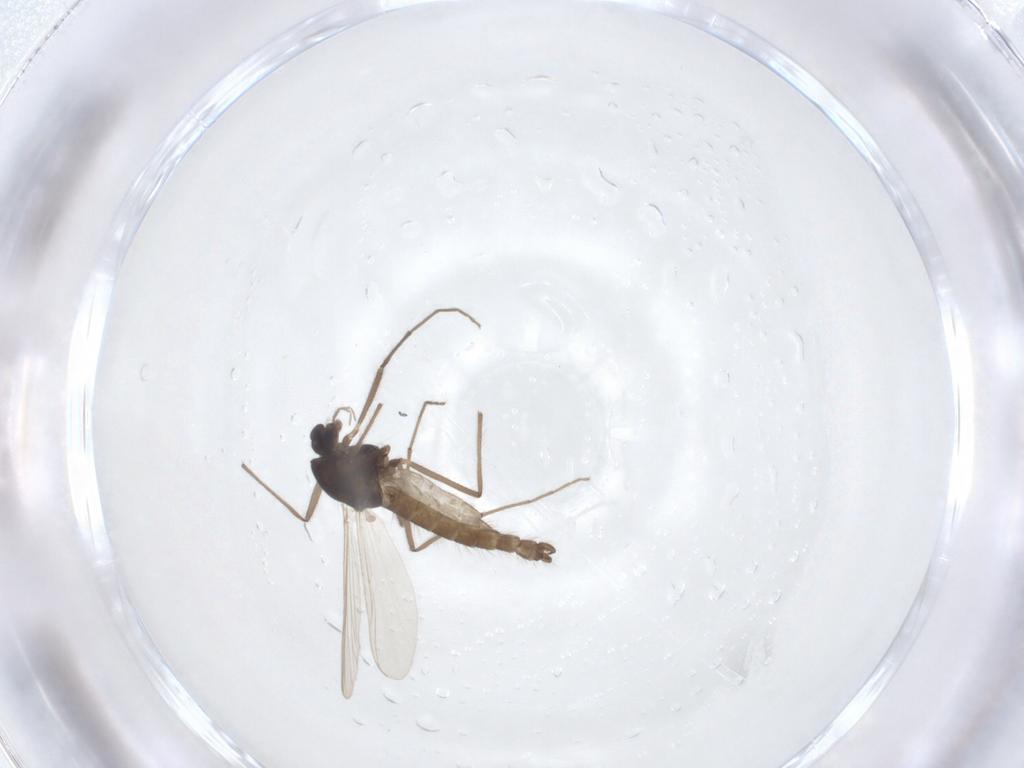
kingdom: Animalia
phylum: Arthropoda
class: Insecta
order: Diptera
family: Chironomidae
